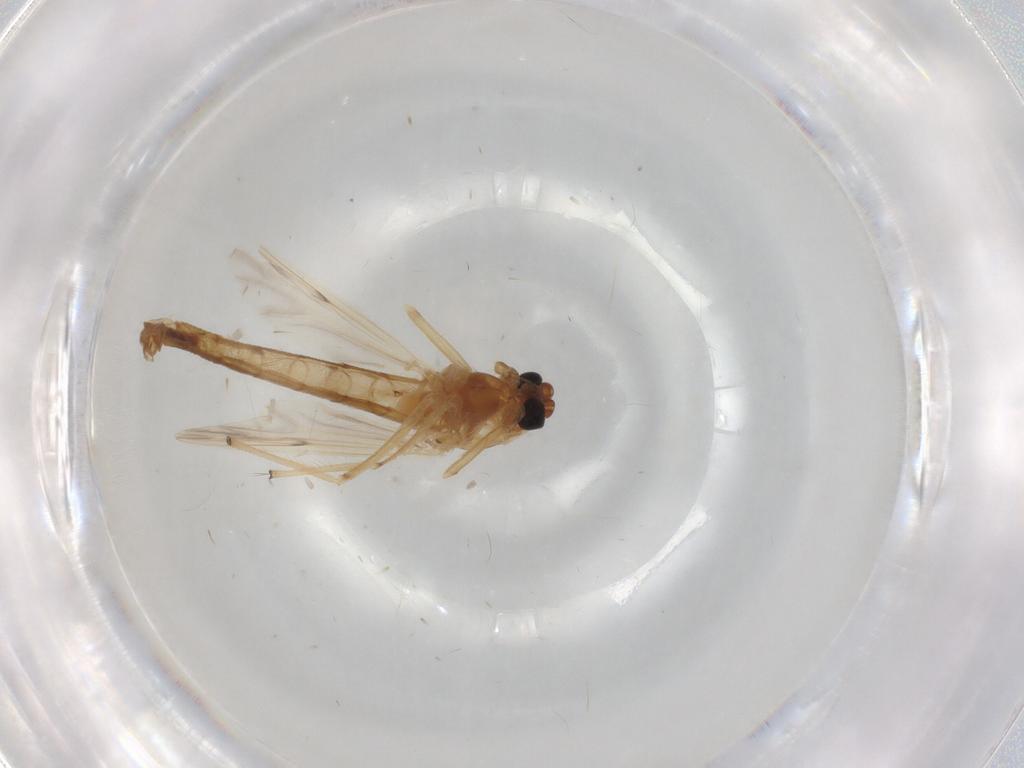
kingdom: Animalia
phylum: Arthropoda
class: Insecta
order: Diptera
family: Chironomidae
